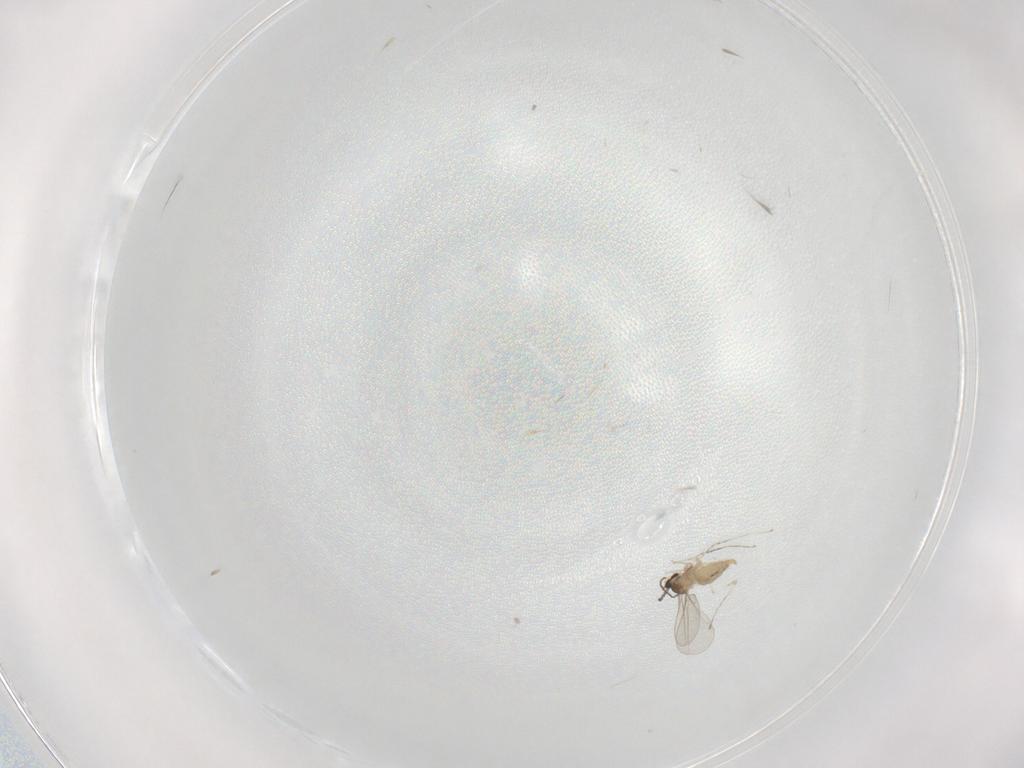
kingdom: Animalia
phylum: Arthropoda
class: Insecta
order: Diptera
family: Cecidomyiidae
